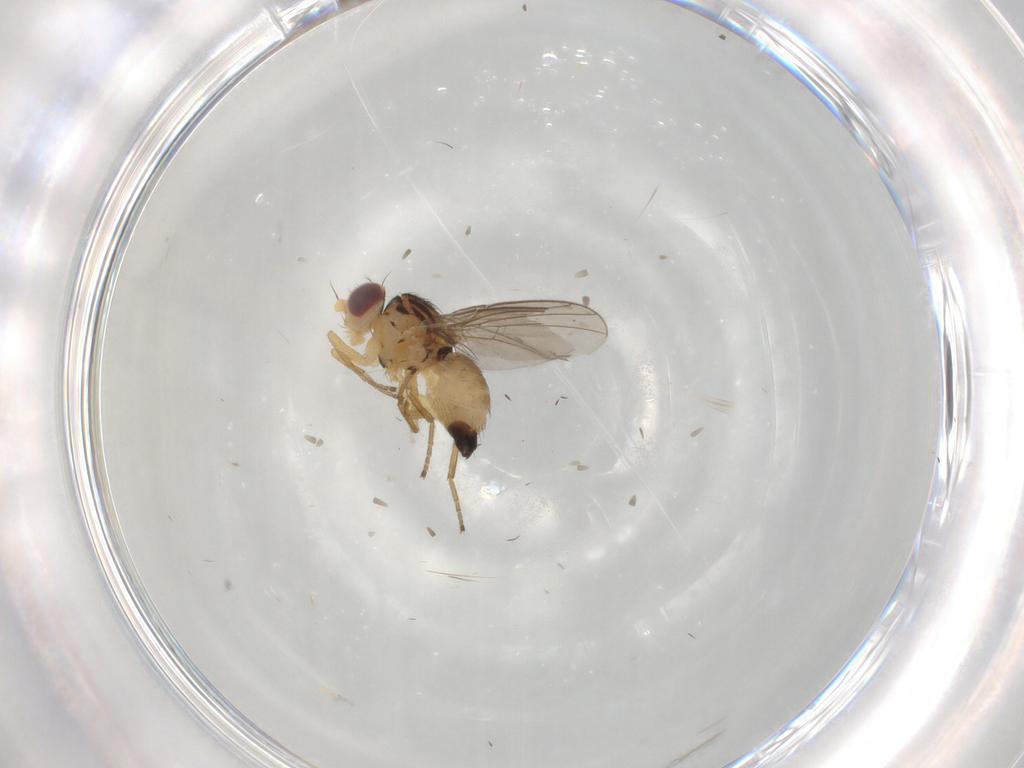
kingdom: Animalia
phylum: Arthropoda
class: Insecta
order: Diptera
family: Agromyzidae
